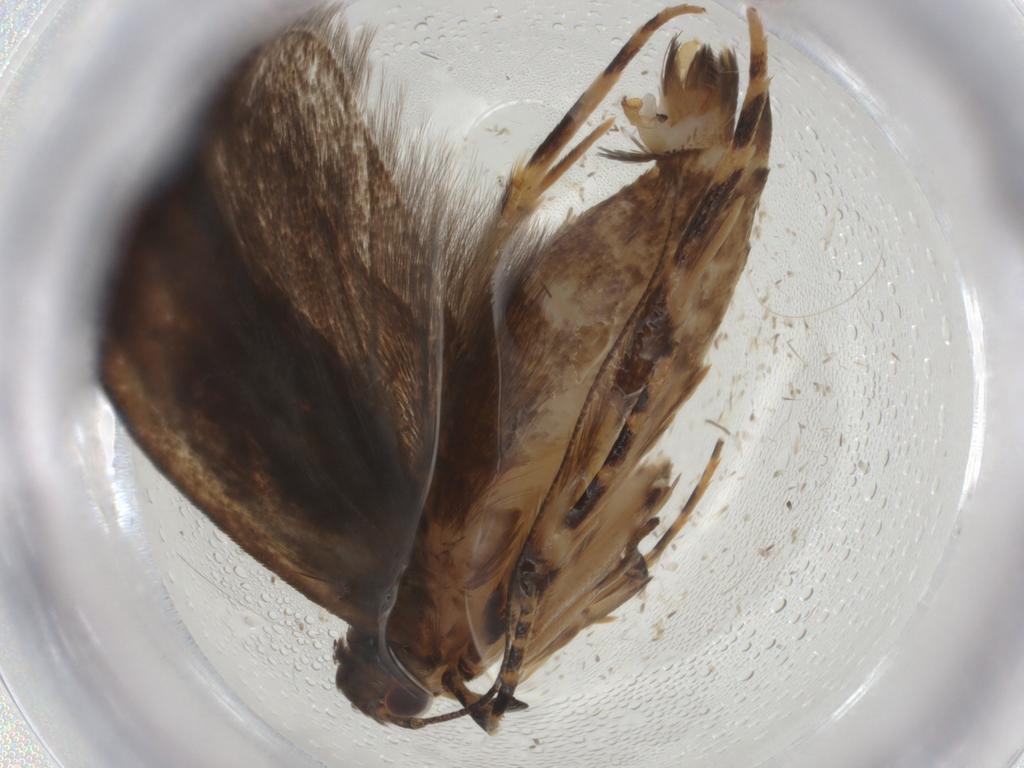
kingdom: Animalia
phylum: Arthropoda
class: Insecta
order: Lepidoptera
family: Gelechiidae
